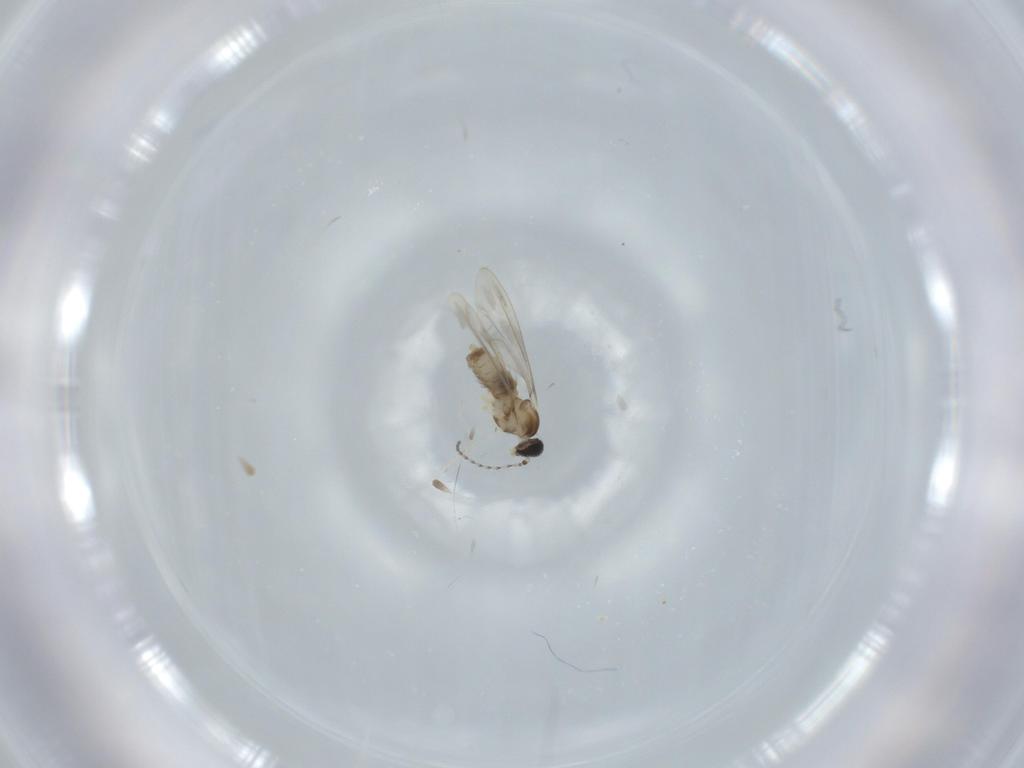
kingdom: Animalia
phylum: Arthropoda
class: Insecta
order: Diptera
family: Cecidomyiidae
